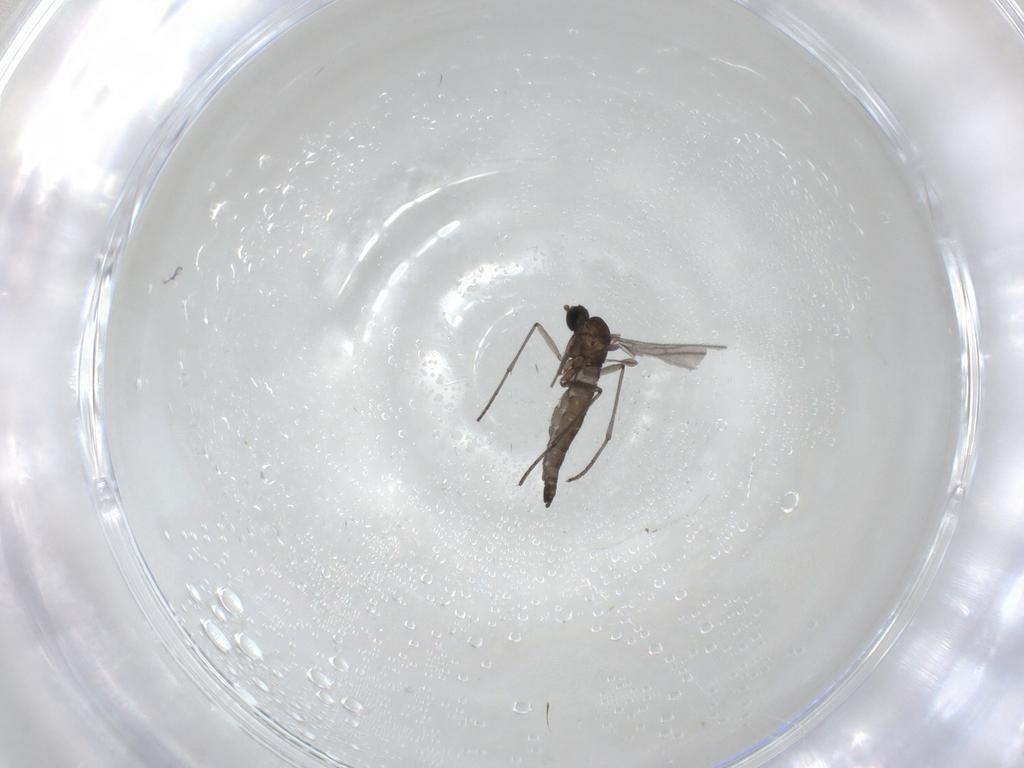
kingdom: Animalia
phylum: Arthropoda
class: Insecta
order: Diptera
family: Sciaridae
